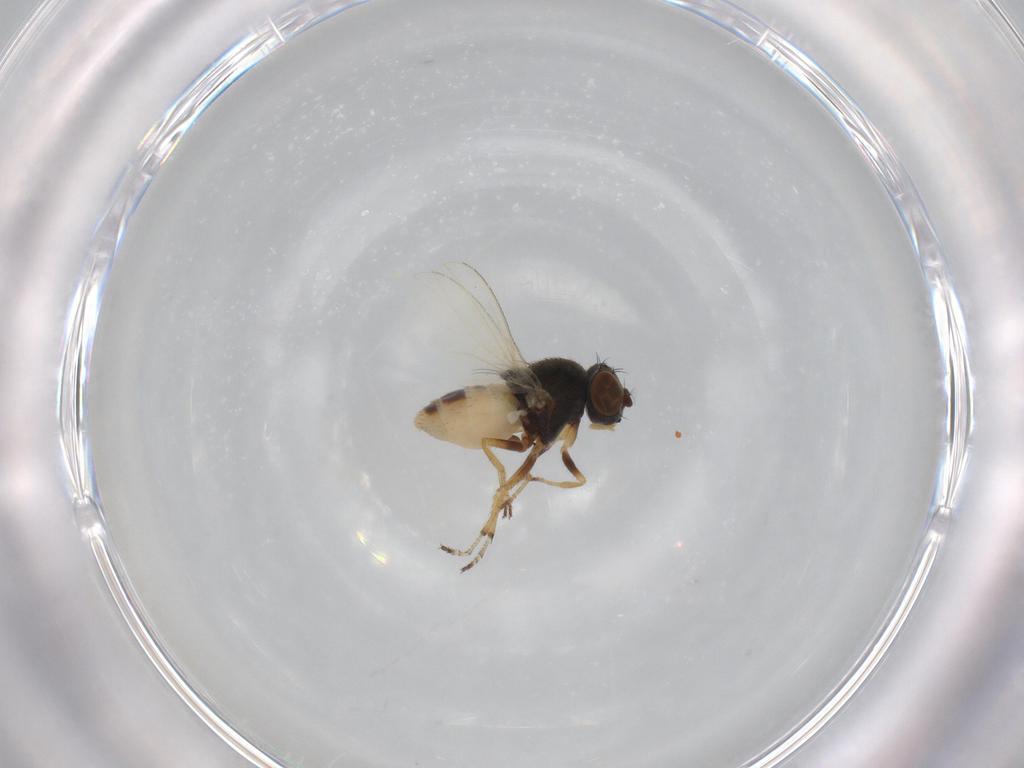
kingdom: Animalia
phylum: Arthropoda
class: Insecta
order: Diptera
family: Ephydridae
